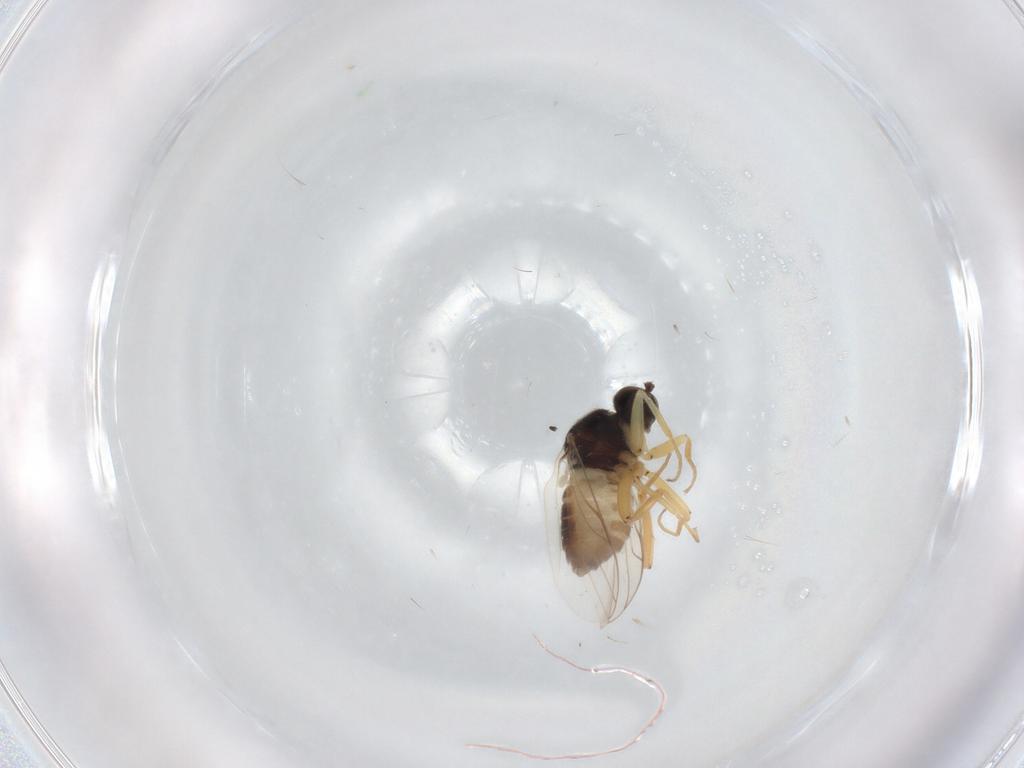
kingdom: Animalia
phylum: Arthropoda
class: Insecta
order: Diptera
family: Hybotidae
